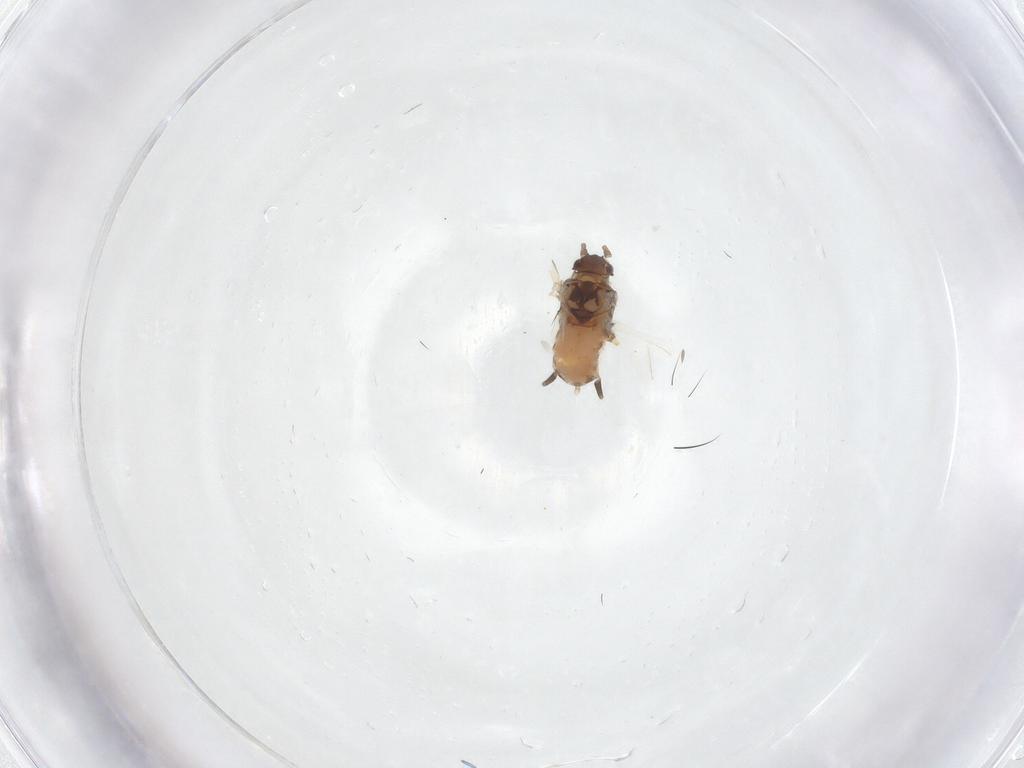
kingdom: Animalia
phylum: Arthropoda
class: Insecta
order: Hemiptera
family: Aphididae
